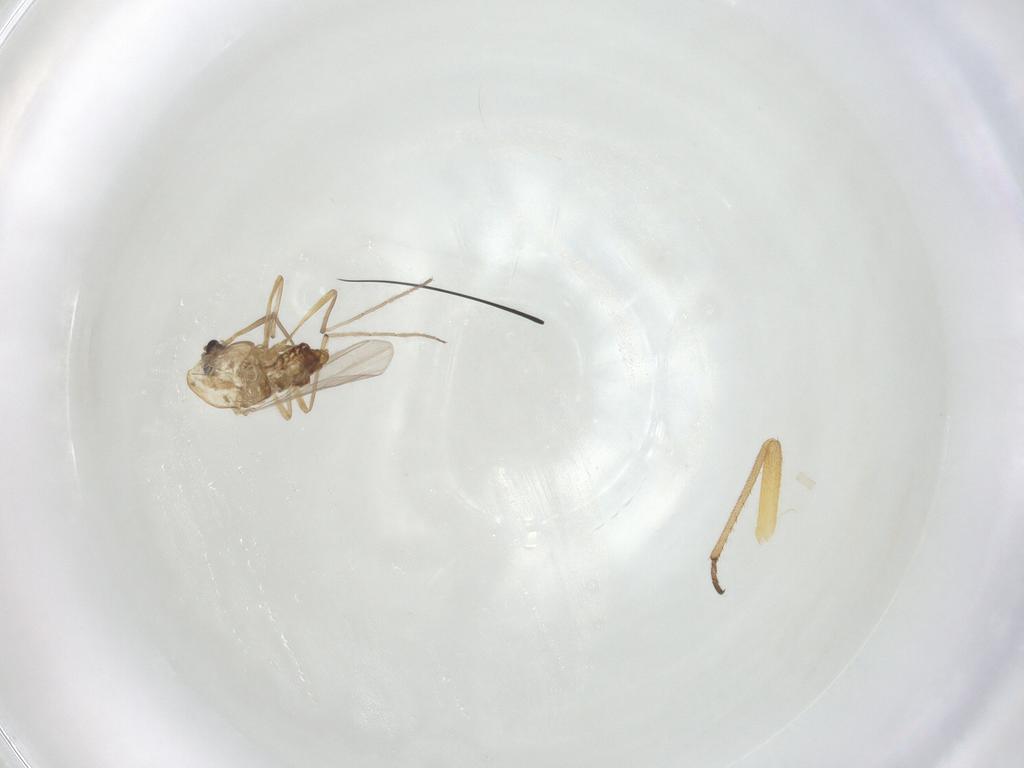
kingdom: Animalia
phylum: Arthropoda
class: Insecta
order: Diptera
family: Chironomidae
